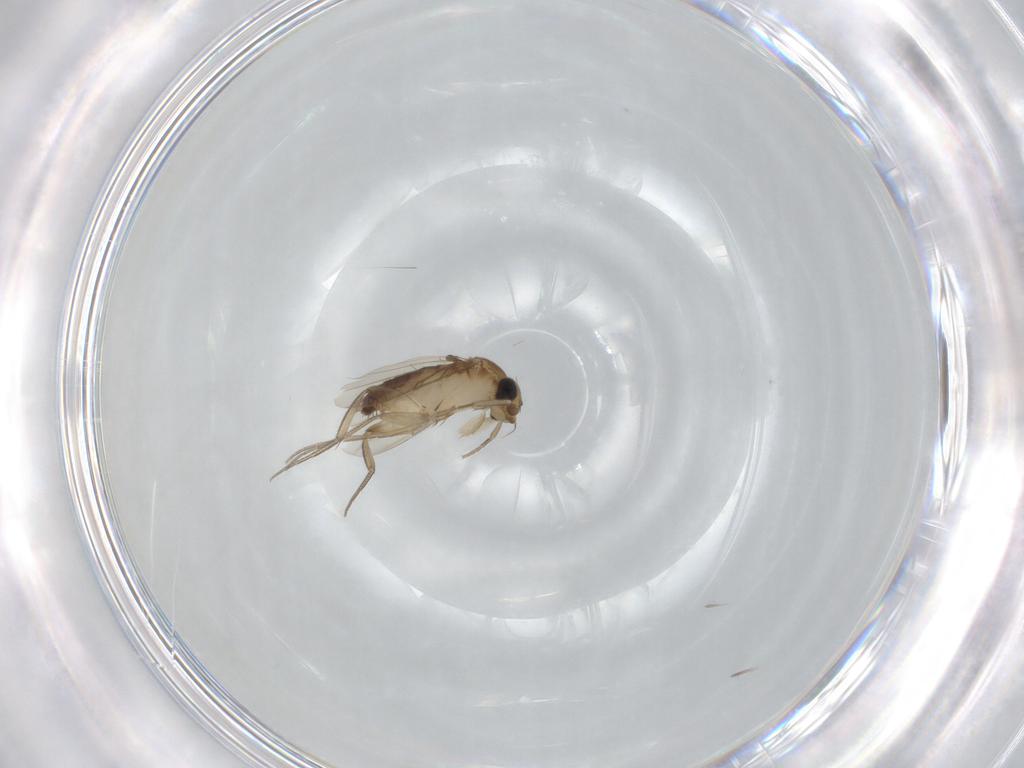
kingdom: Animalia
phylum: Arthropoda
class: Insecta
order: Diptera
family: Phoridae
